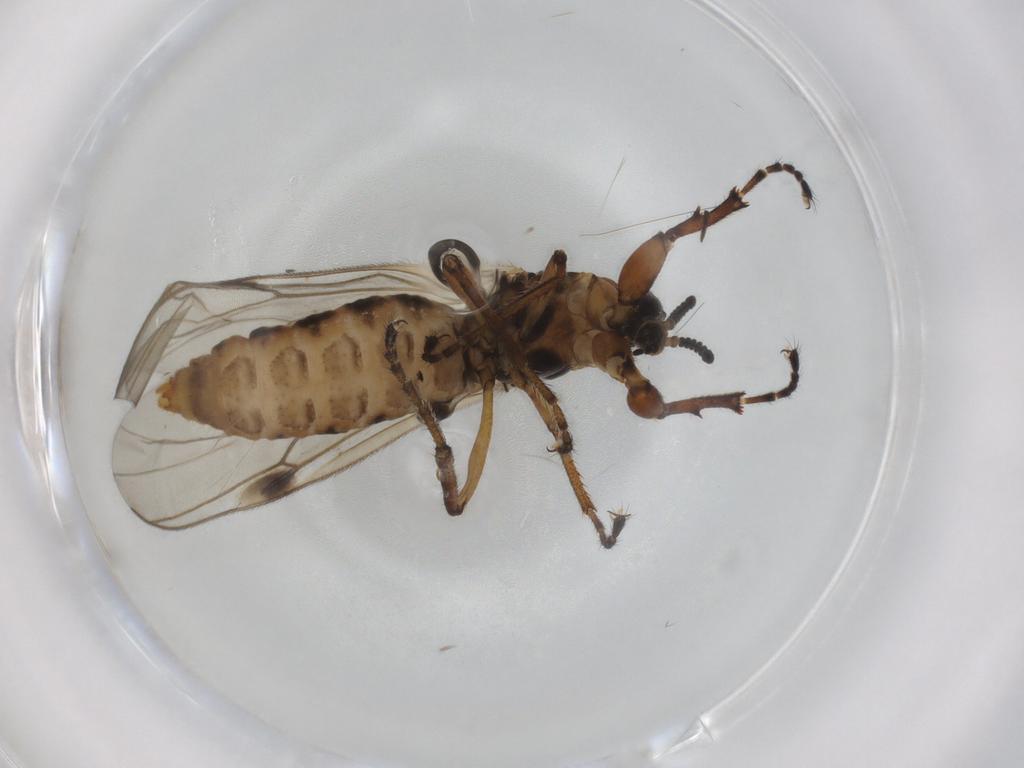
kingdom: Animalia
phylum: Arthropoda
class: Insecta
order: Diptera
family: Bibionidae
